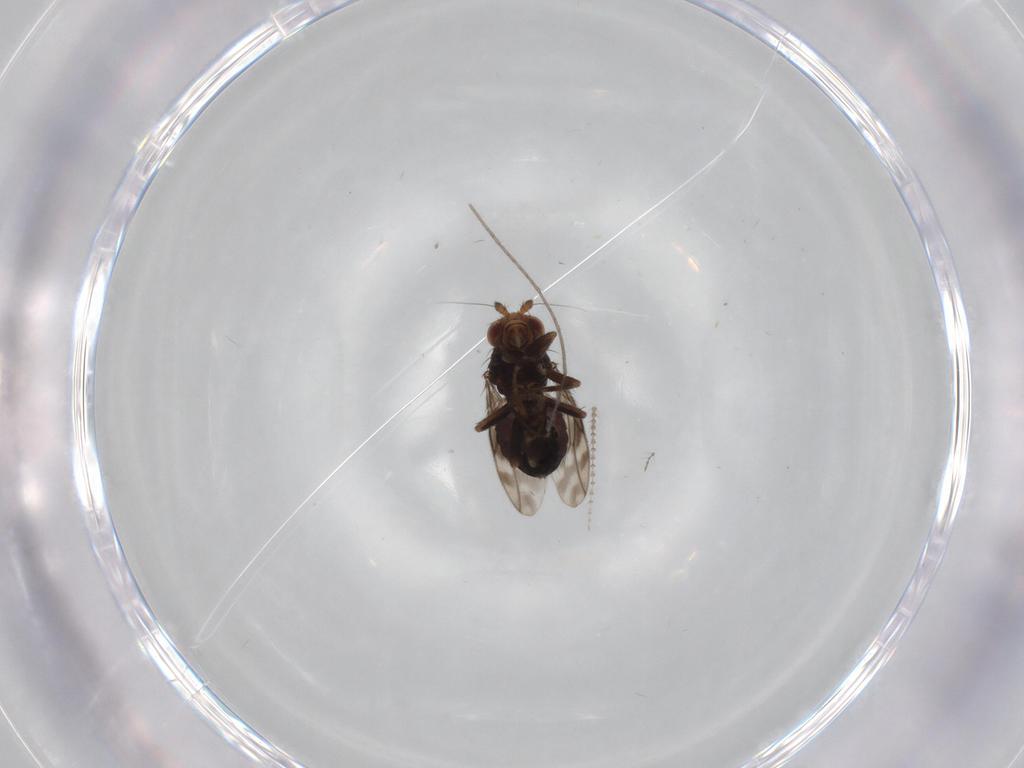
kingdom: Animalia
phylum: Arthropoda
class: Insecta
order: Diptera
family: Sphaeroceridae
